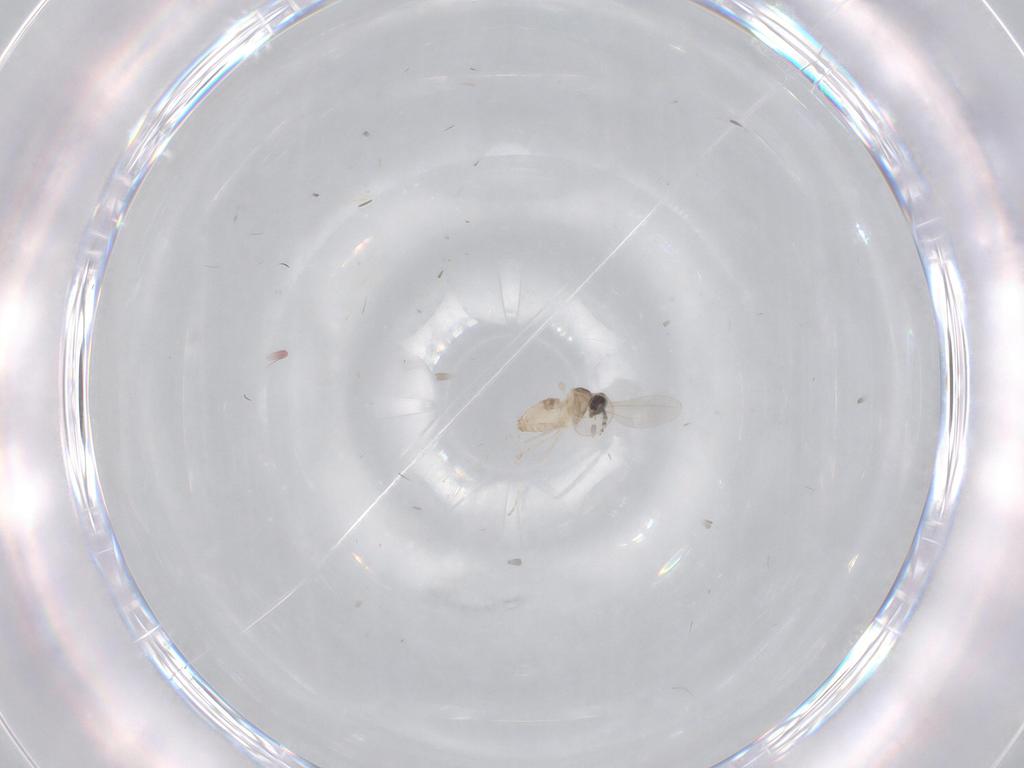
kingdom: Animalia
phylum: Arthropoda
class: Insecta
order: Diptera
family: Cecidomyiidae
